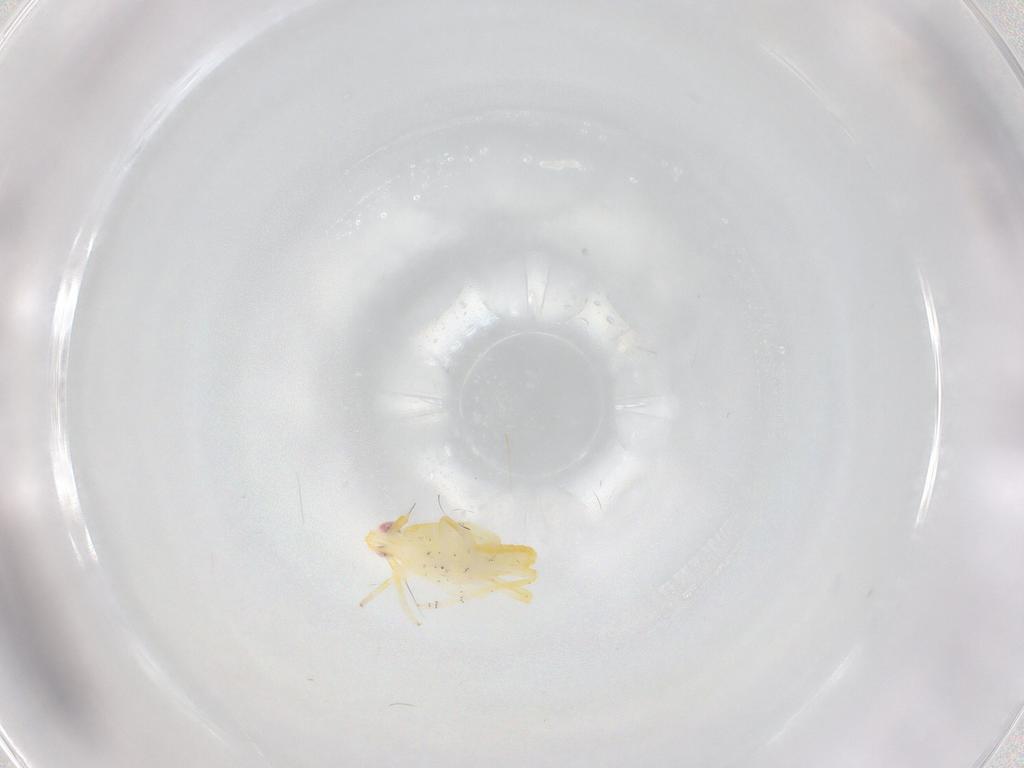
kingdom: Animalia
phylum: Arthropoda
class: Insecta
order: Hemiptera
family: Delphacidae
